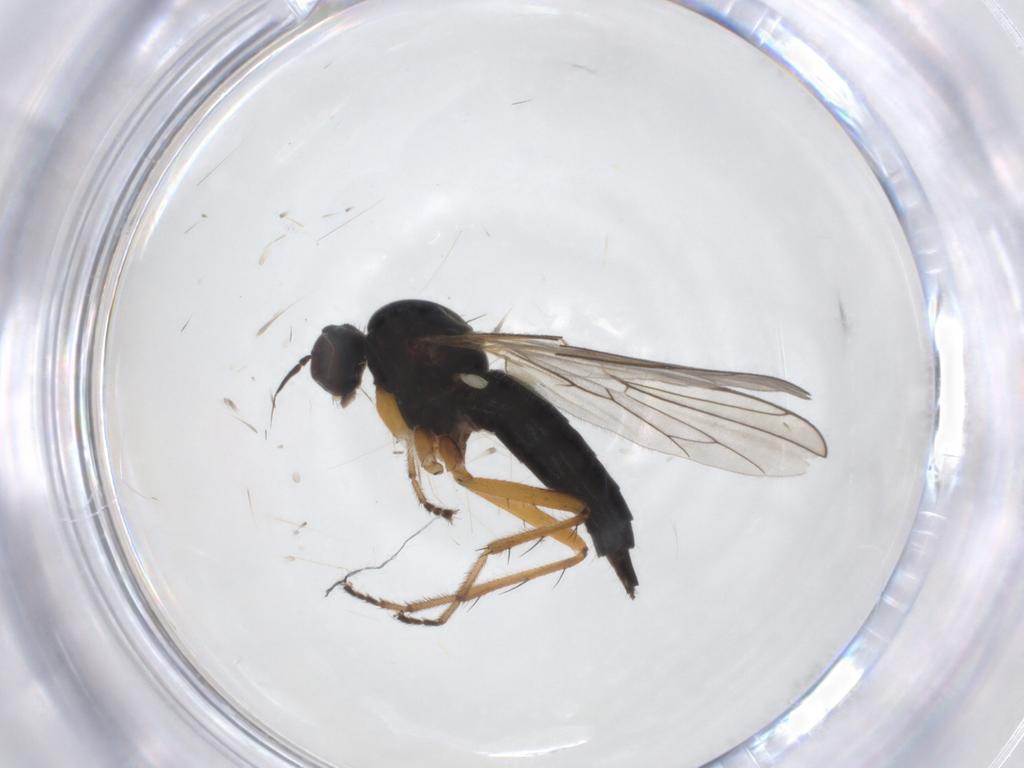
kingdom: Animalia
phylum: Arthropoda
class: Insecta
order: Diptera
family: Hybotidae
